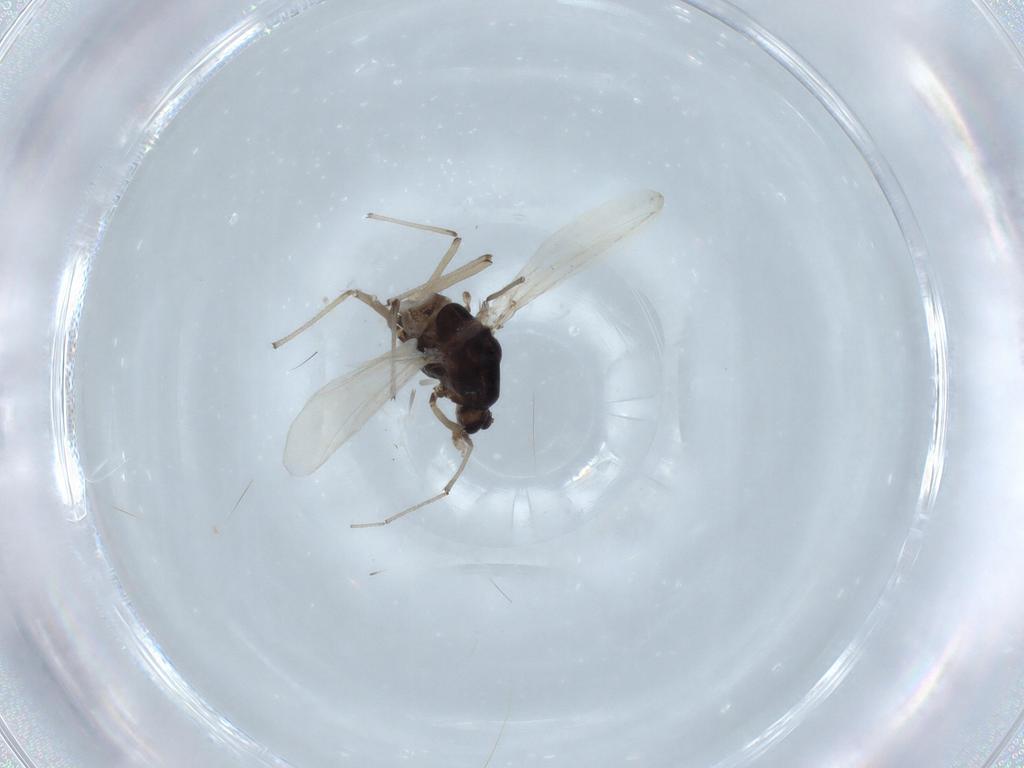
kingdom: Animalia
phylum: Arthropoda
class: Insecta
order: Diptera
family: Chironomidae
